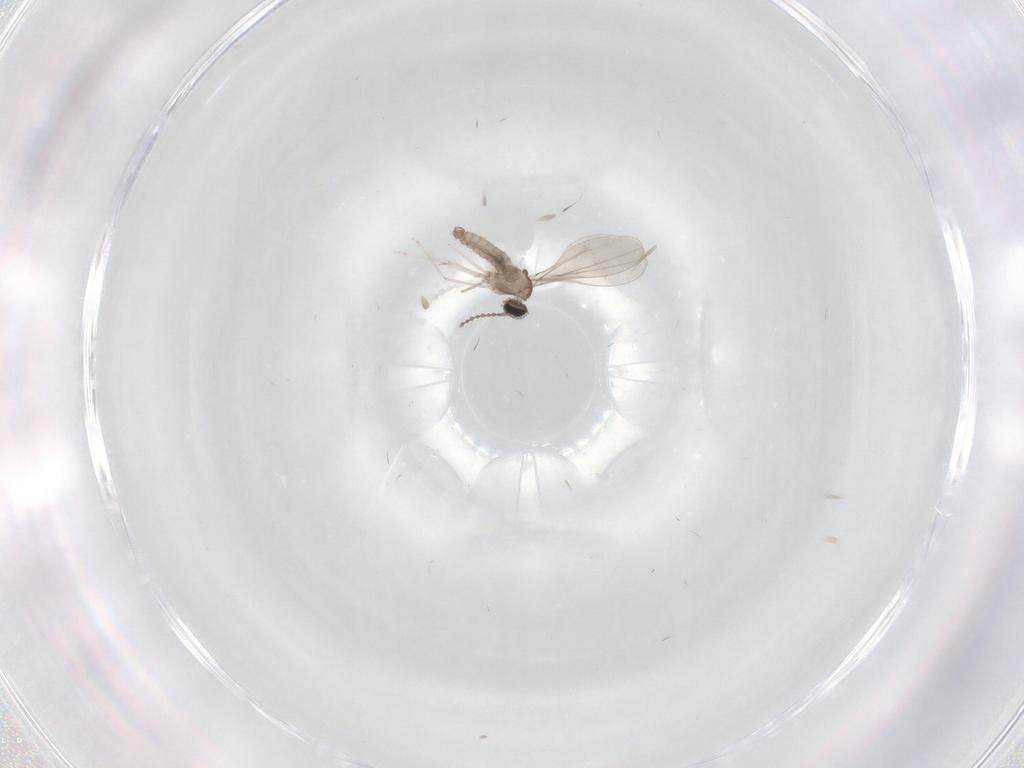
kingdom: Animalia
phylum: Arthropoda
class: Insecta
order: Diptera
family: Sciaridae
